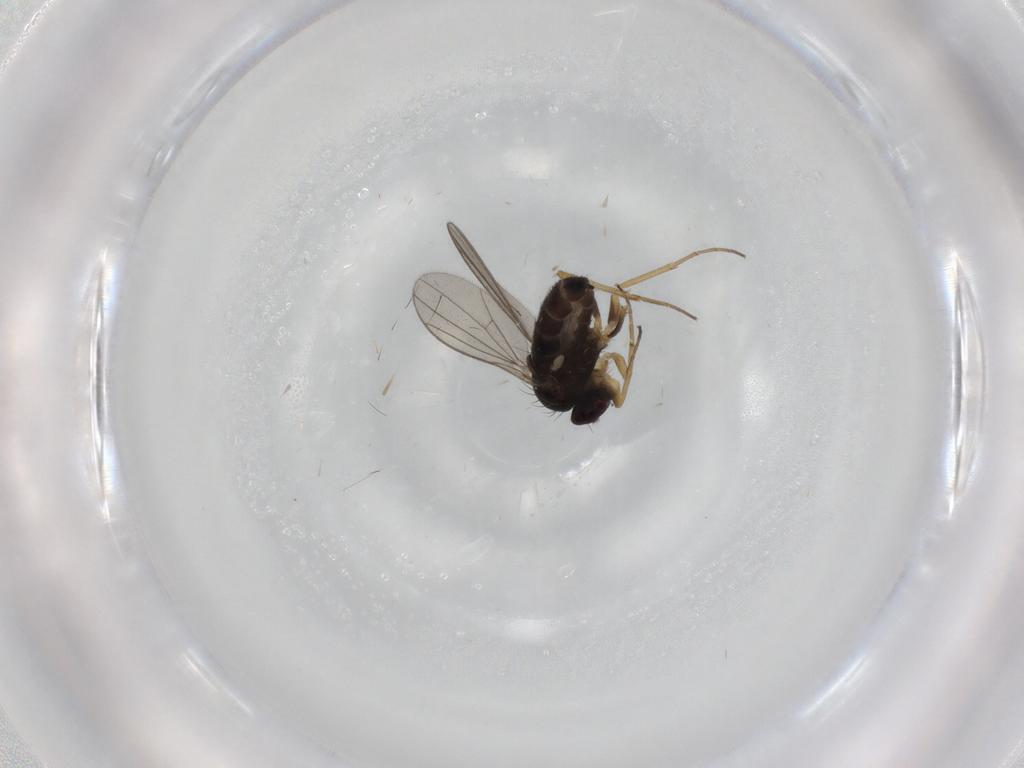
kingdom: Animalia
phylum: Arthropoda
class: Insecta
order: Diptera
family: Dolichopodidae
